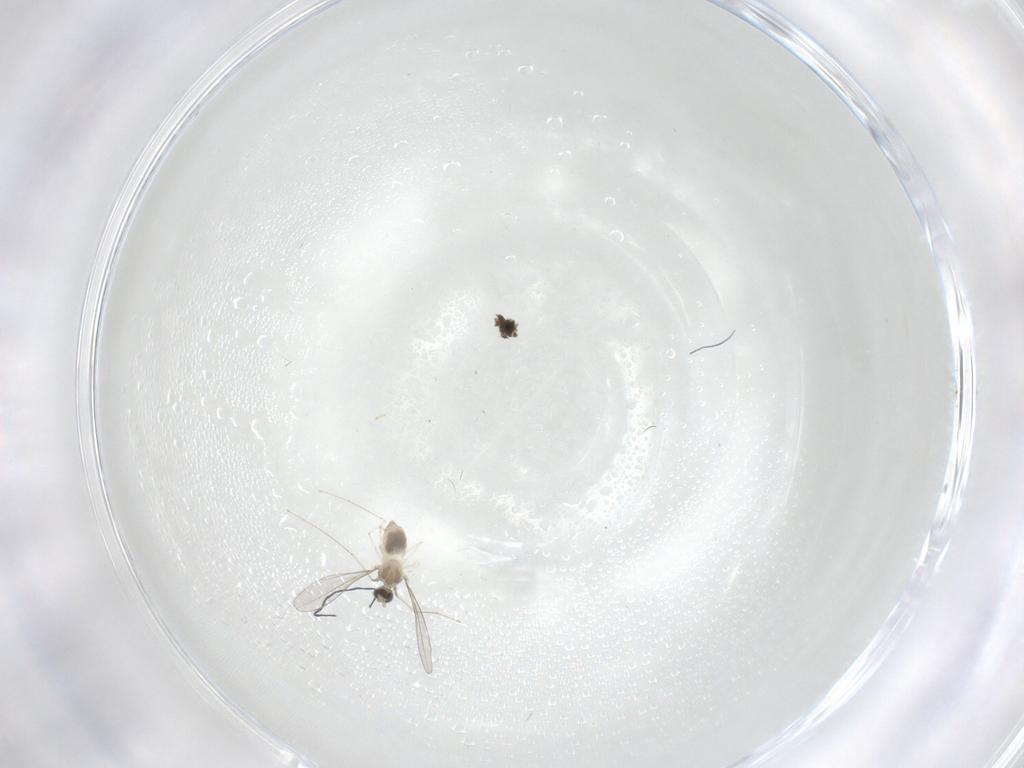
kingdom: Animalia
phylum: Arthropoda
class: Insecta
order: Diptera
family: Cecidomyiidae
